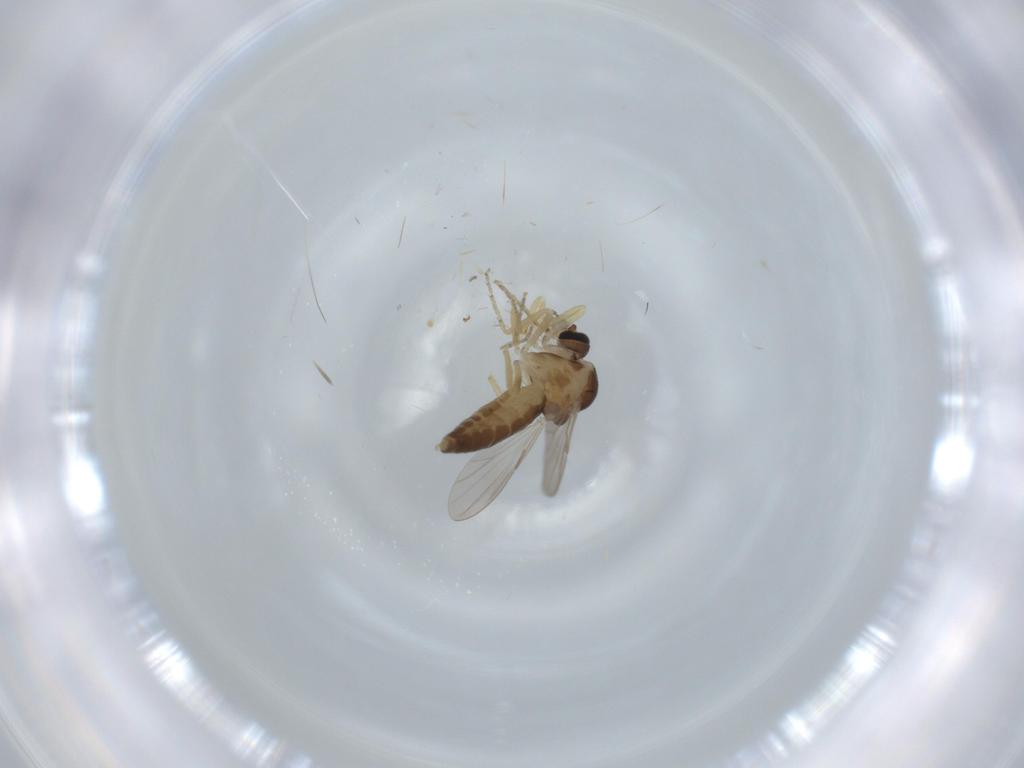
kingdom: Animalia
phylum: Arthropoda
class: Insecta
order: Diptera
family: Ceratopogonidae
